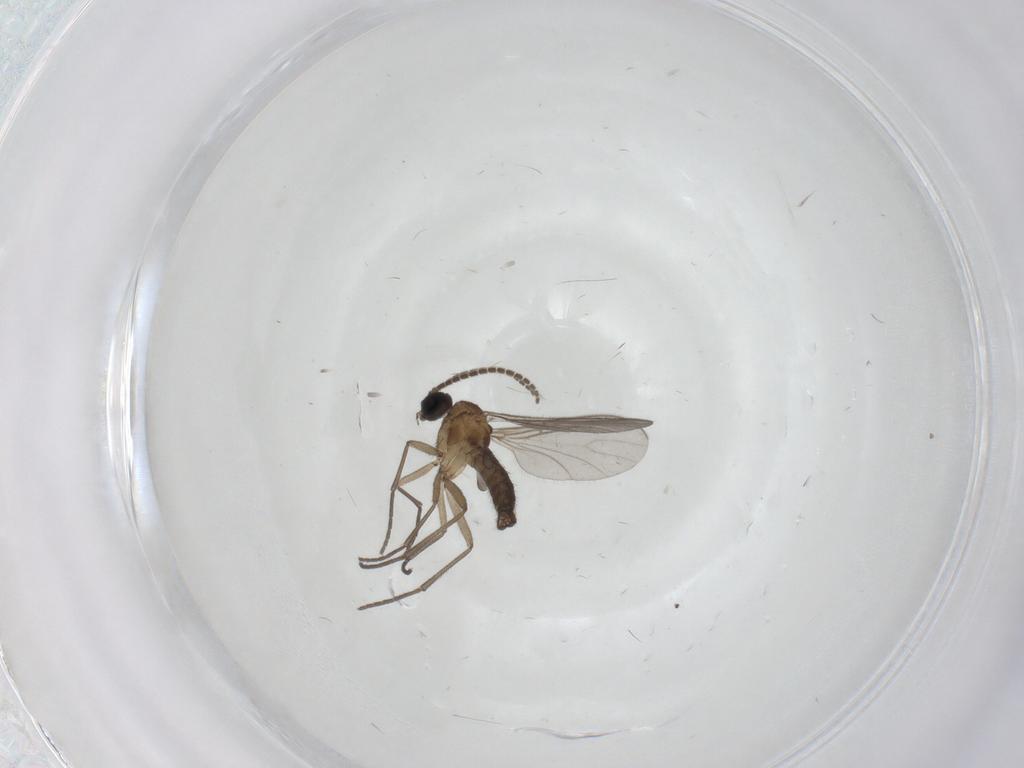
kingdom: Animalia
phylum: Arthropoda
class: Insecta
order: Diptera
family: Sciaridae
